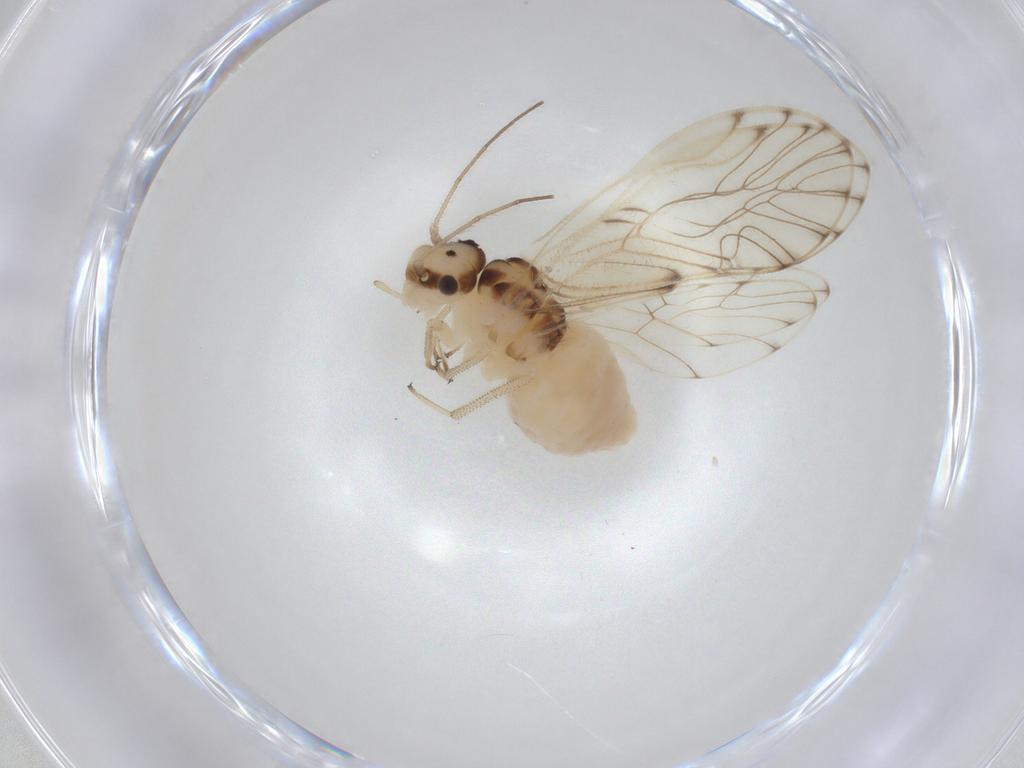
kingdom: Animalia
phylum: Arthropoda
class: Insecta
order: Psocodea
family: Philotarsidae
